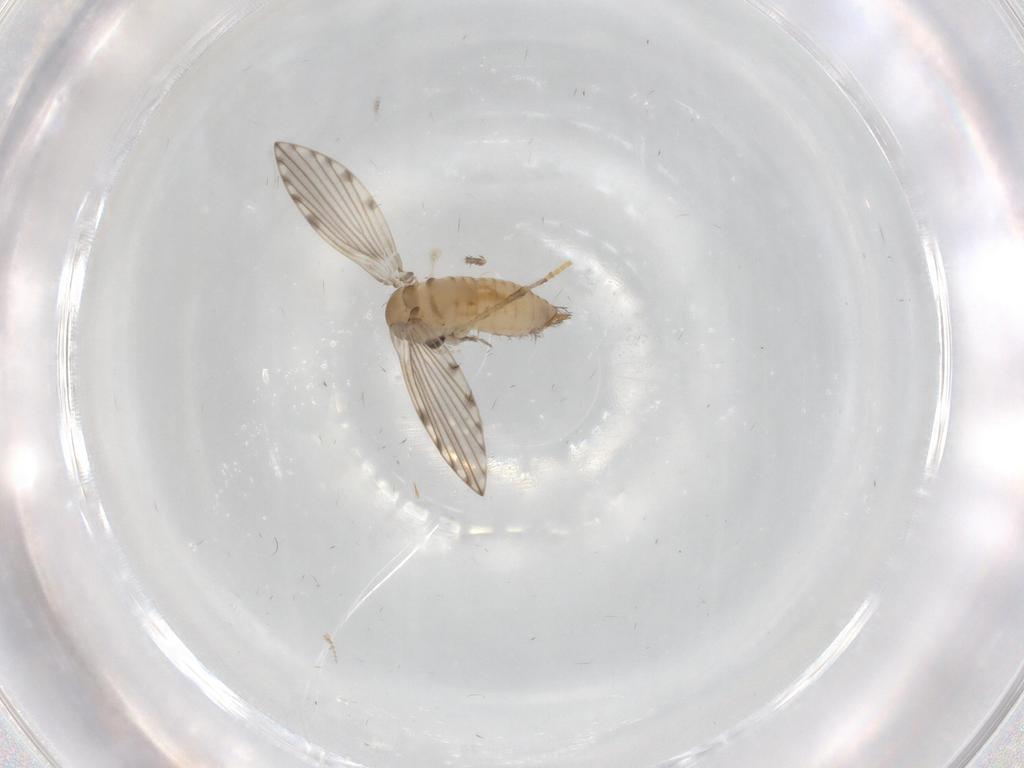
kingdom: Animalia
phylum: Arthropoda
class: Insecta
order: Diptera
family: Psychodidae
